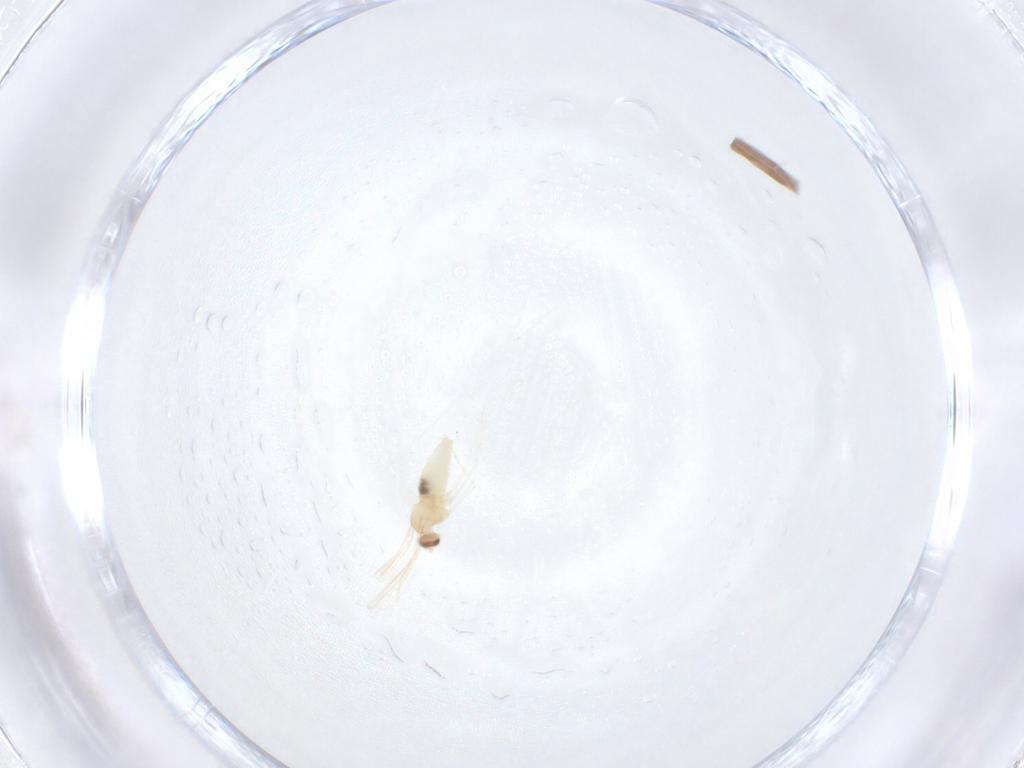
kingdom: Animalia
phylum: Arthropoda
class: Insecta
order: Diptera
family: Cecidomyiidae
